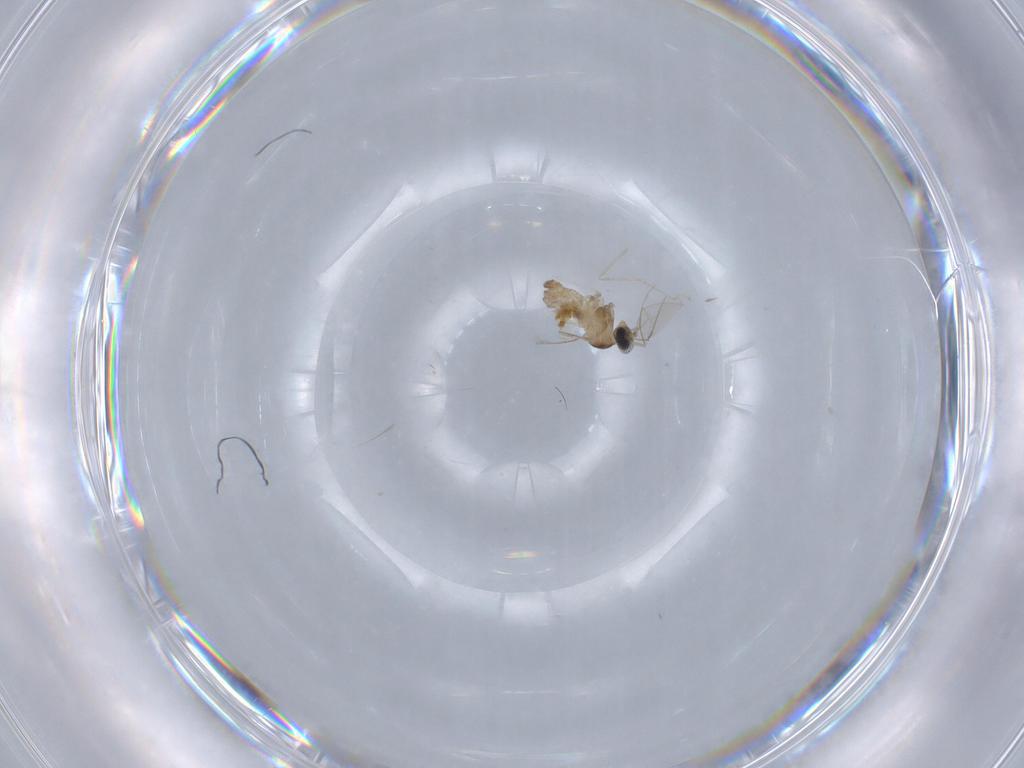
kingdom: Animalia
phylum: Arthropoda
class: Insecta
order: Diptera
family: Cecidomyiidae
